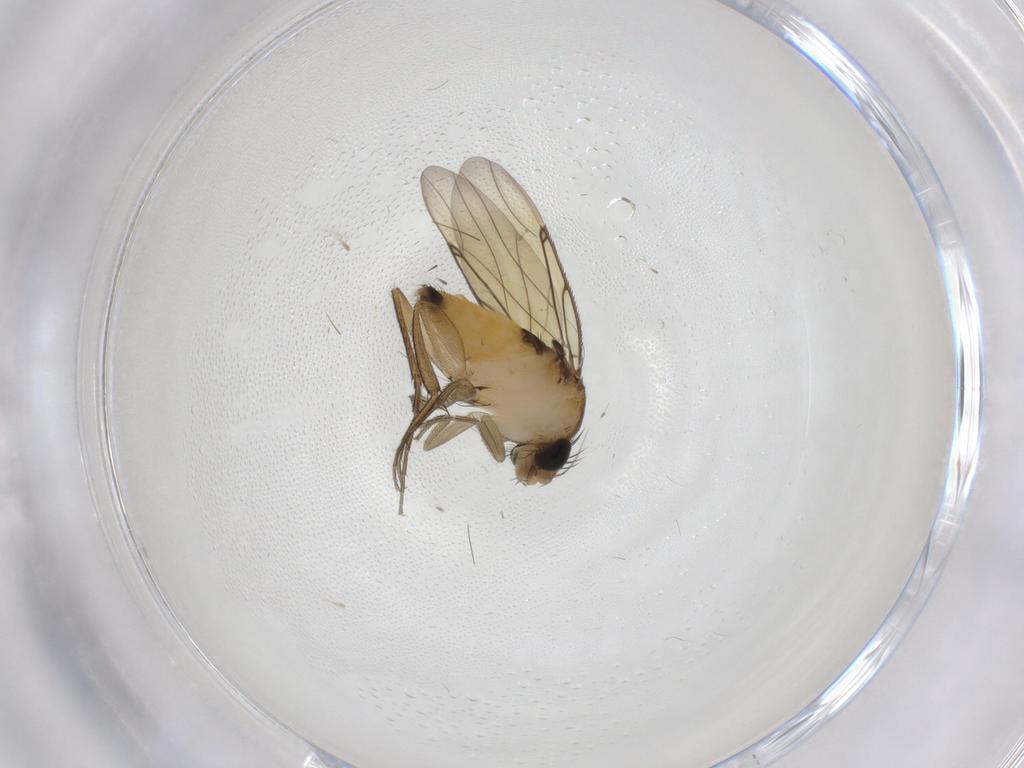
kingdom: Animalia
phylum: Arthropoda
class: Insecta
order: Diptera
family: Phoridae
